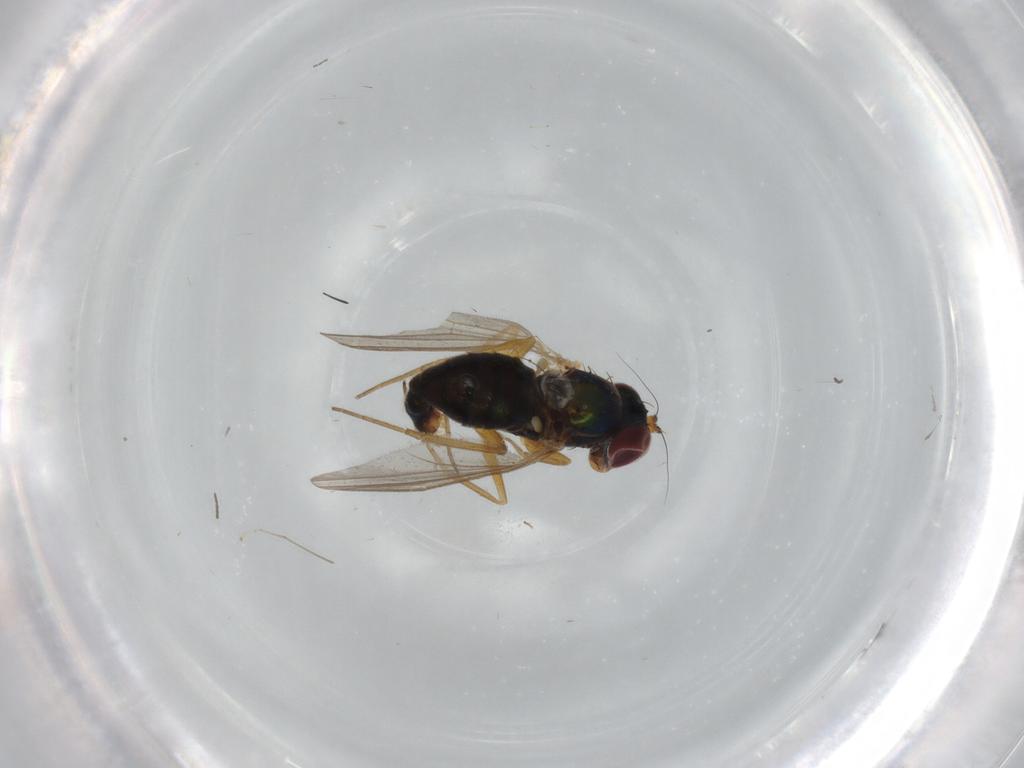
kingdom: Animalia
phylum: Arthropoda
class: Insecta
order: Diptera
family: Dolichopodidae
